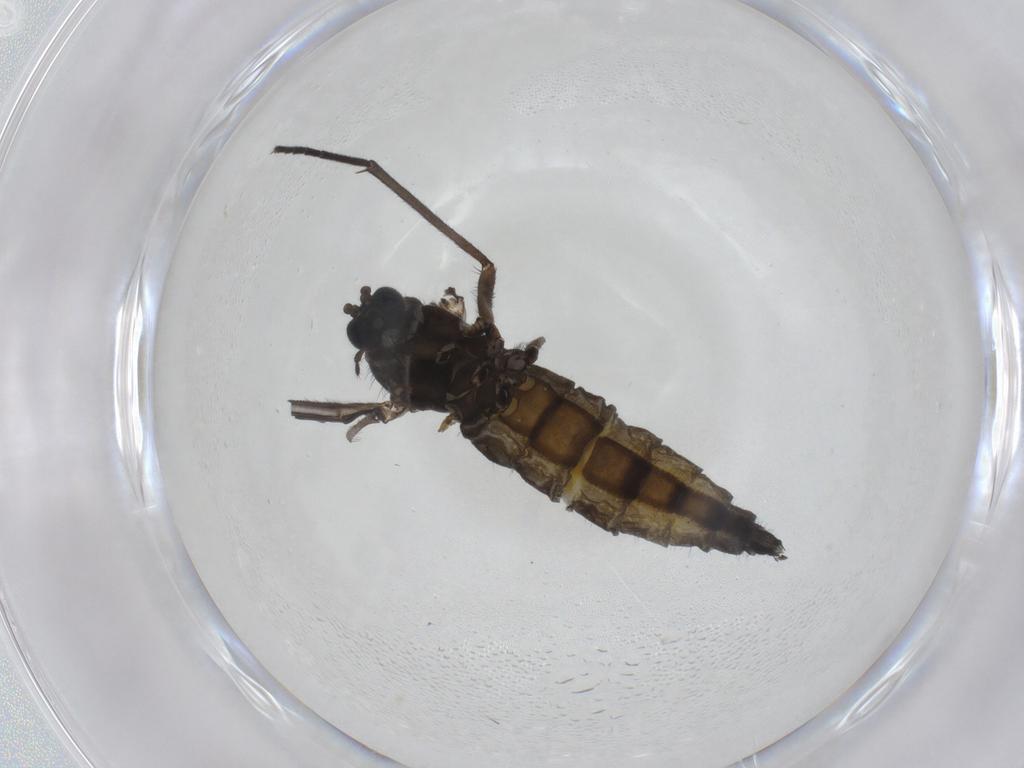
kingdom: Animalia
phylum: Arthropoda
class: Insecta
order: Diptera
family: Sciaridae
